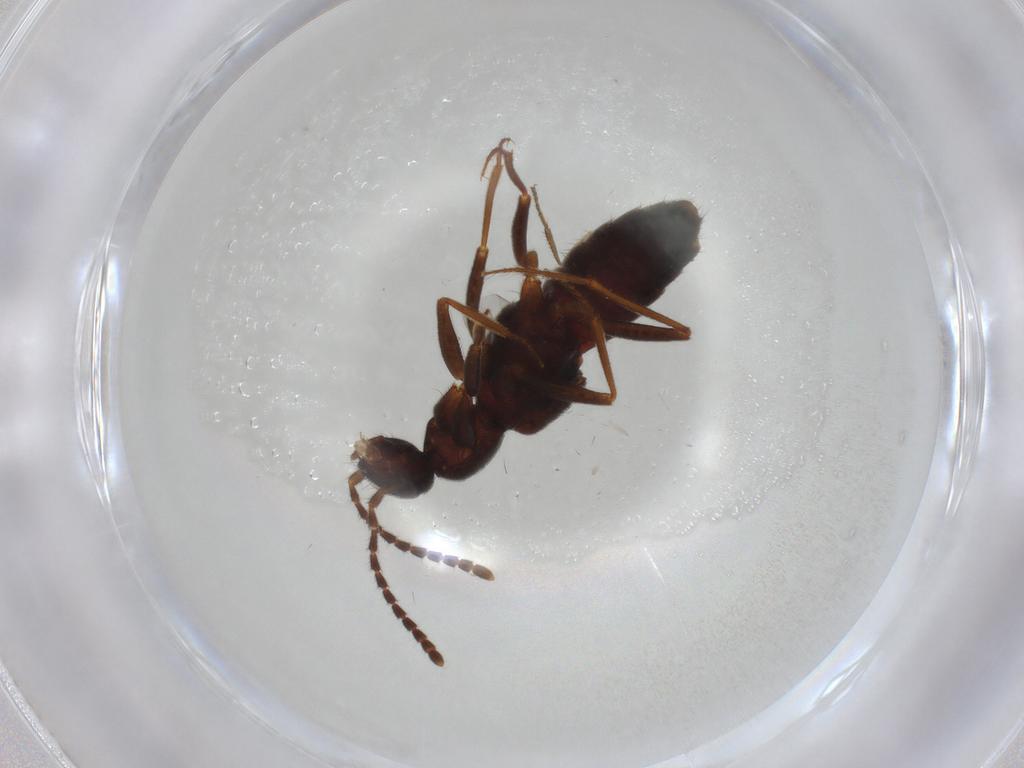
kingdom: Animalia
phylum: Arthropoda
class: Insecta
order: Coleoptera
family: Staphylinidae
